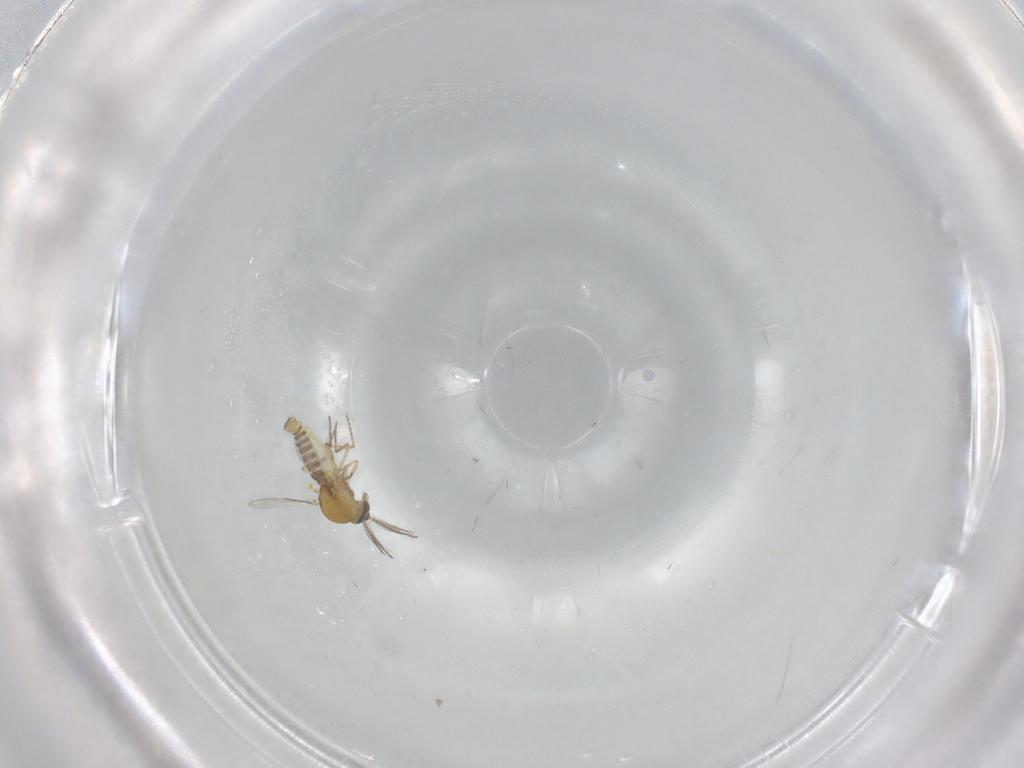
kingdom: Animalia
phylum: Arthropoda
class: Insecta
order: Diptera
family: Ceratopogonidae
